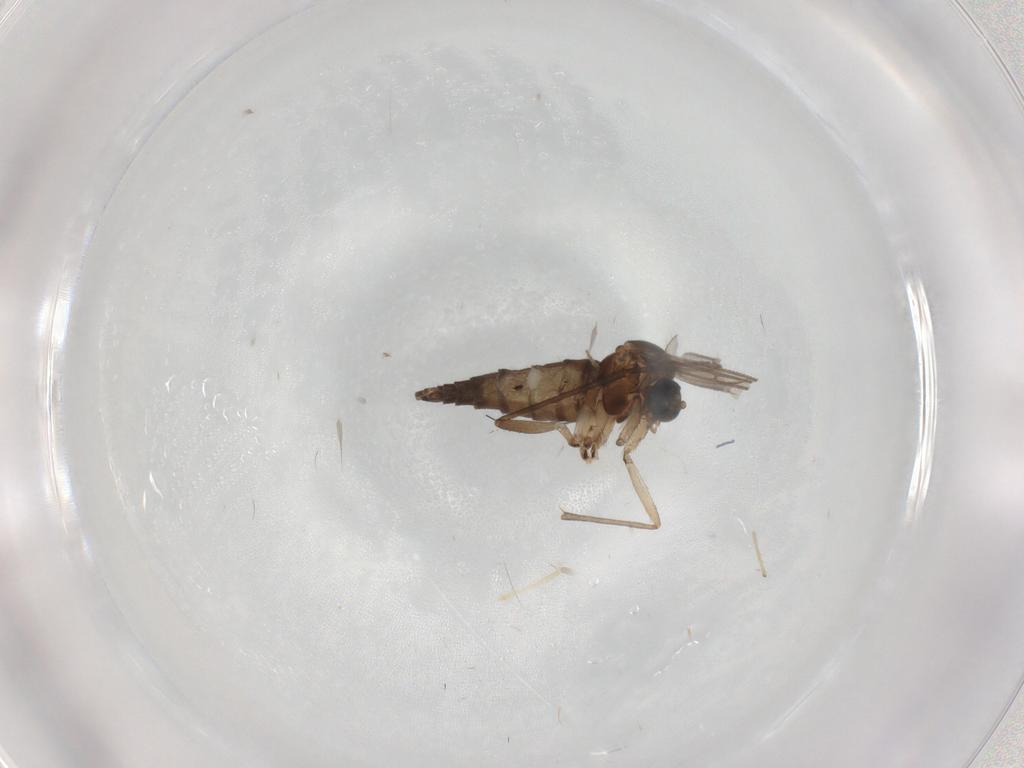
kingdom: Animalia
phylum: Arthropoda
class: Insecta
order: Diptera
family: Sciaridae
